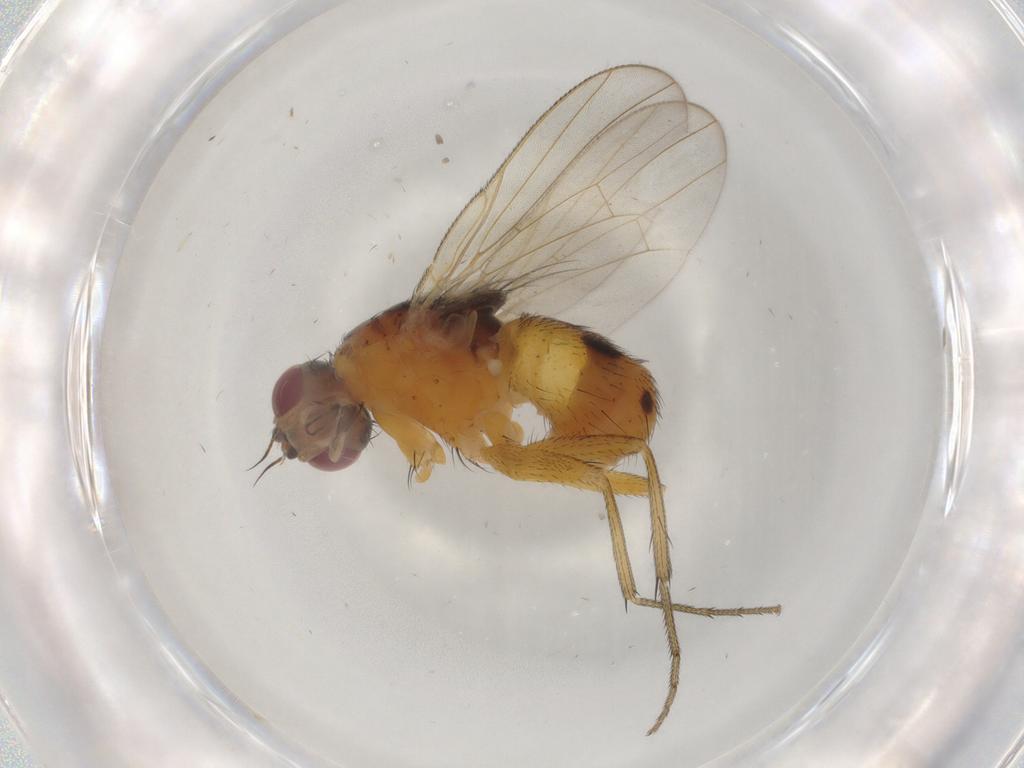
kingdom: Animalia
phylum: Arthropoda
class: Insecta
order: Diptera
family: Muscidae
